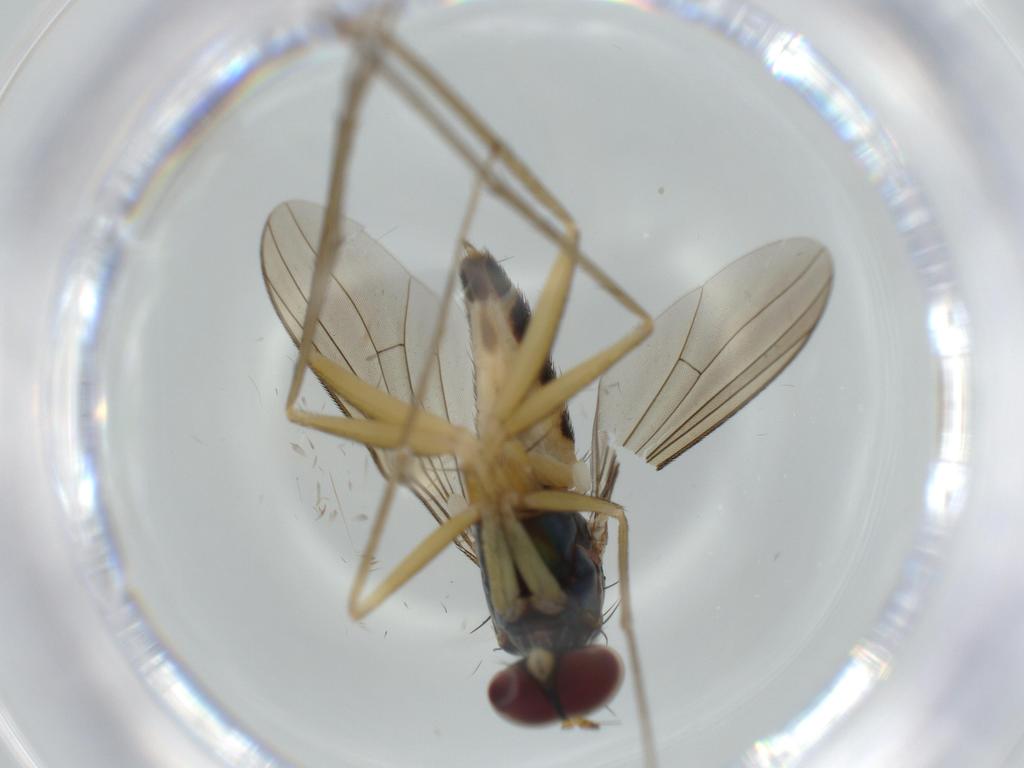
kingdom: Animalia
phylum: Arthropoda
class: Insecta
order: Diptera
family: Dolichopodidae
